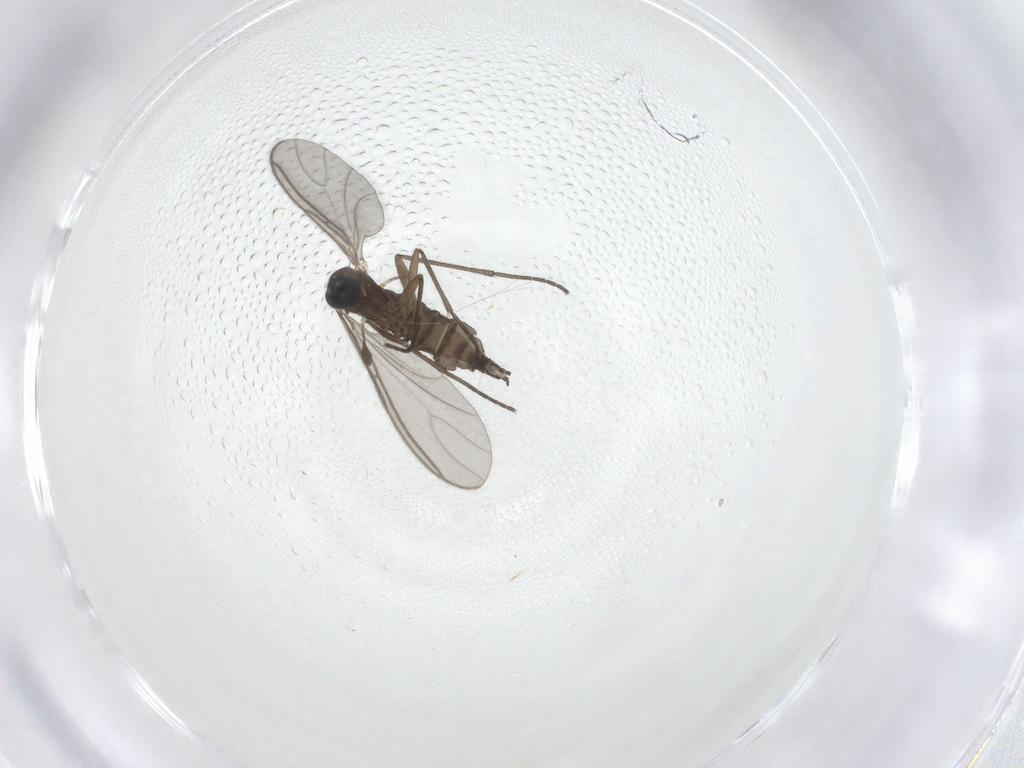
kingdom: Animalia
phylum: Arthropoda
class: Insecta
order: Diptera
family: Sciaridae
